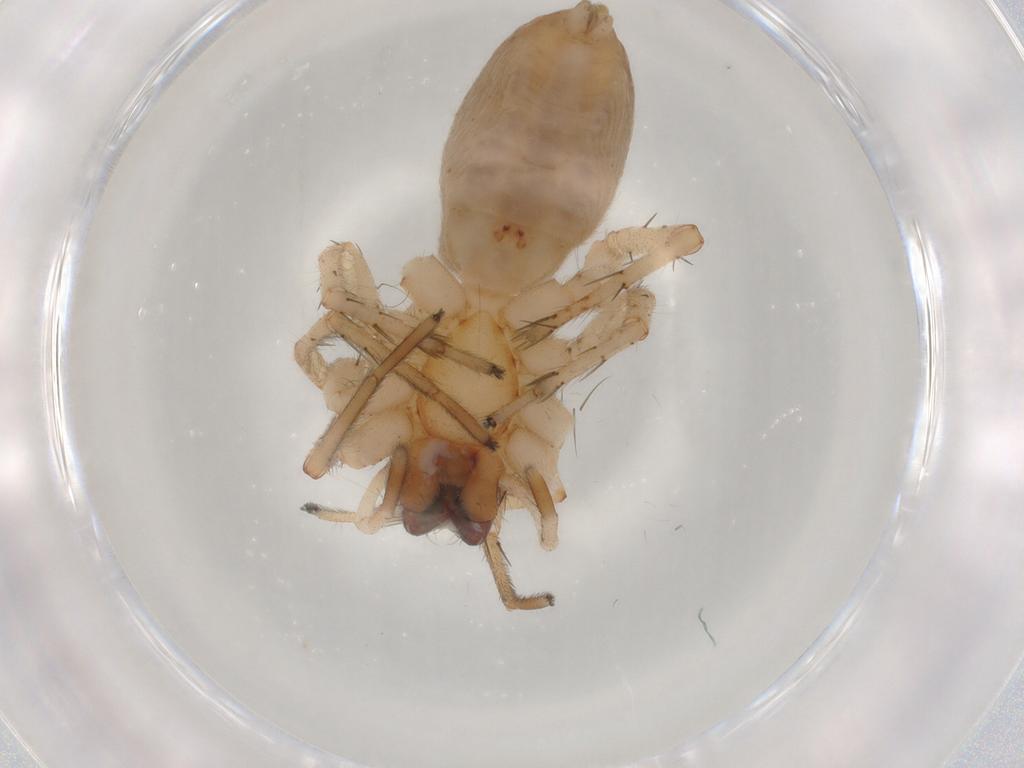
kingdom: Animalia
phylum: Arthropoda
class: Arachnida
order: Araneae
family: Anyphaenidae
